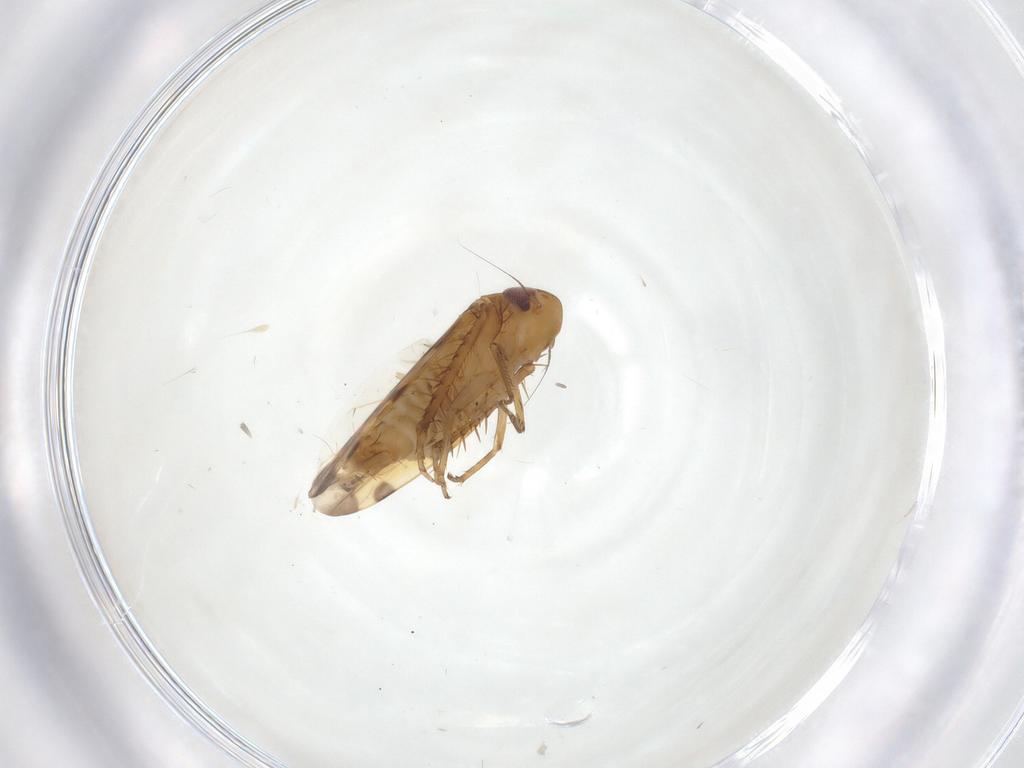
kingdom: Animalia
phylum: Arthropoda
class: Insecta
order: Hemiptera
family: Cicadellidae
